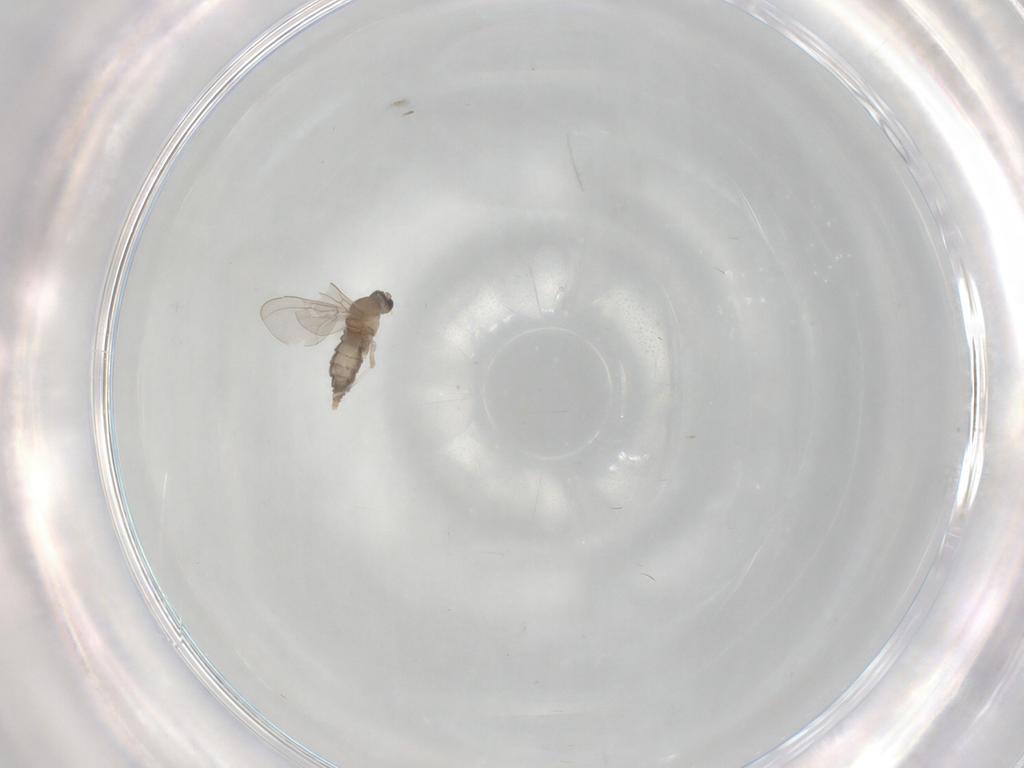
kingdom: Animalia
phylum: Arthropoda
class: Insecta
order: Diptera
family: Cecidomyiidae
